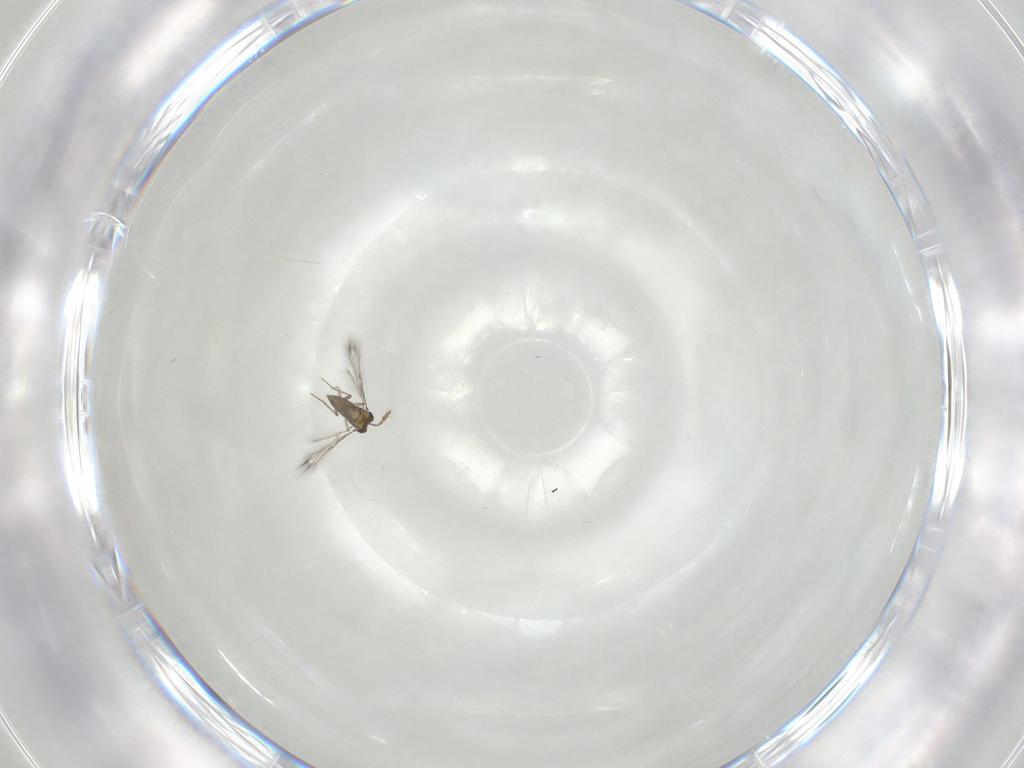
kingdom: Animalia
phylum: Arthropoda
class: Insecta
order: Hymenoptera
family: Trichogrammatidae
